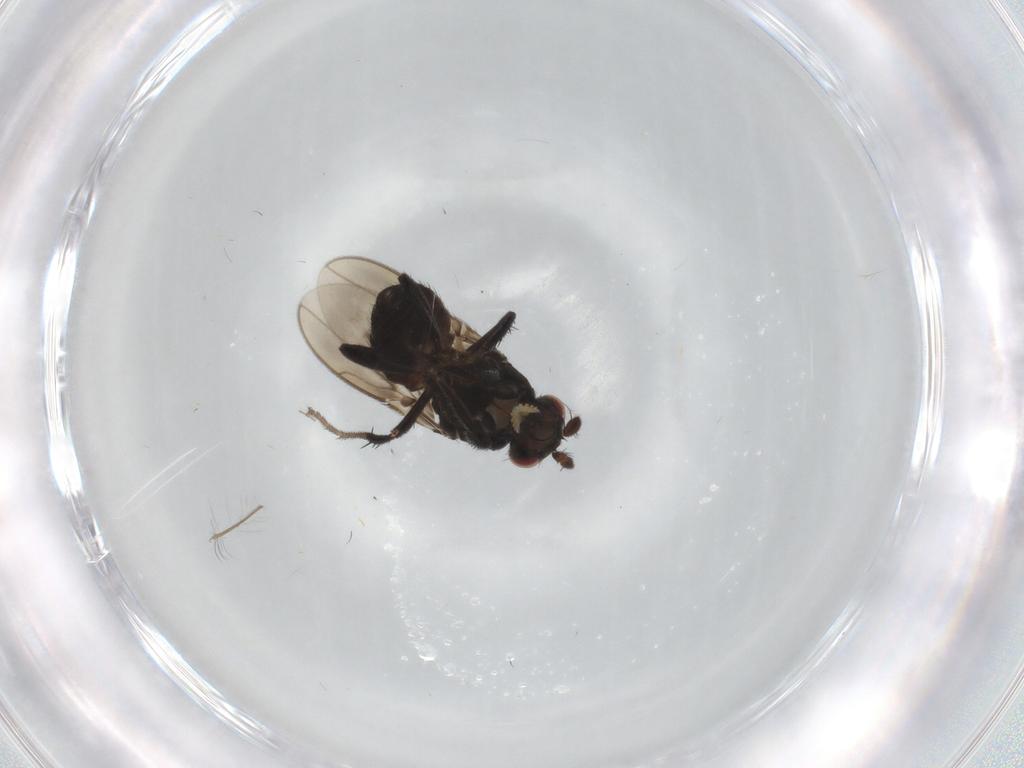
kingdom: Animalia
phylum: Arthropoda
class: Insecta
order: Diptera
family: Sphaeroceridae
